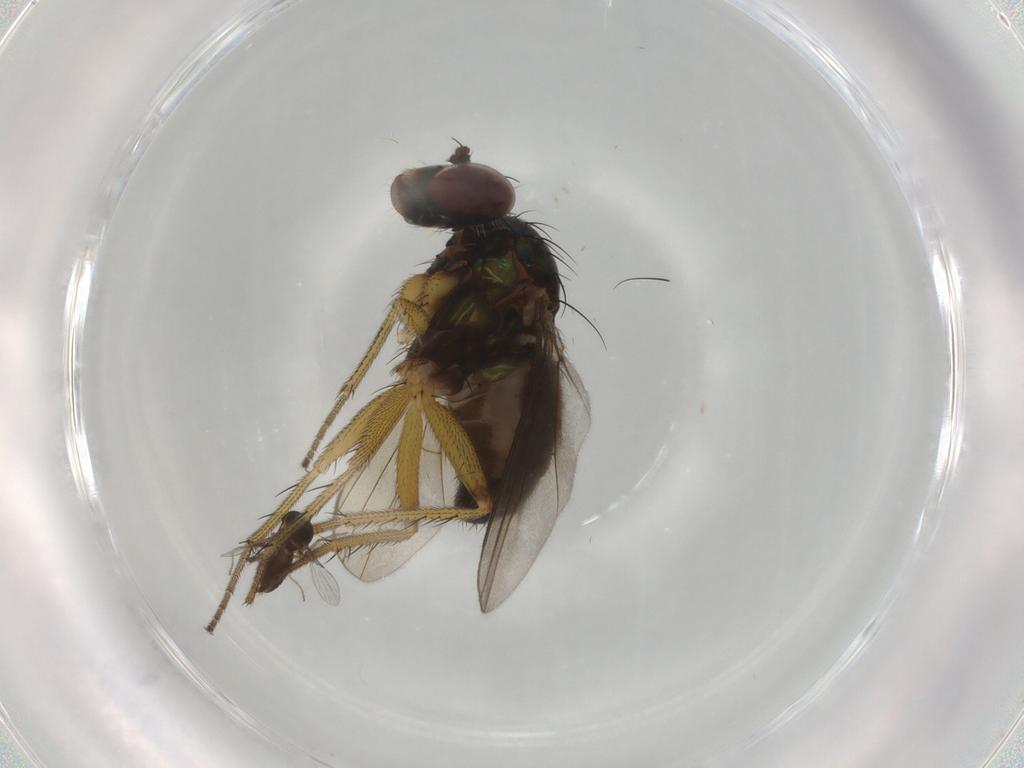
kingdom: Animalia
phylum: Arthropoda
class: Insecta
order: Diptera
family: Dolichopodidae
